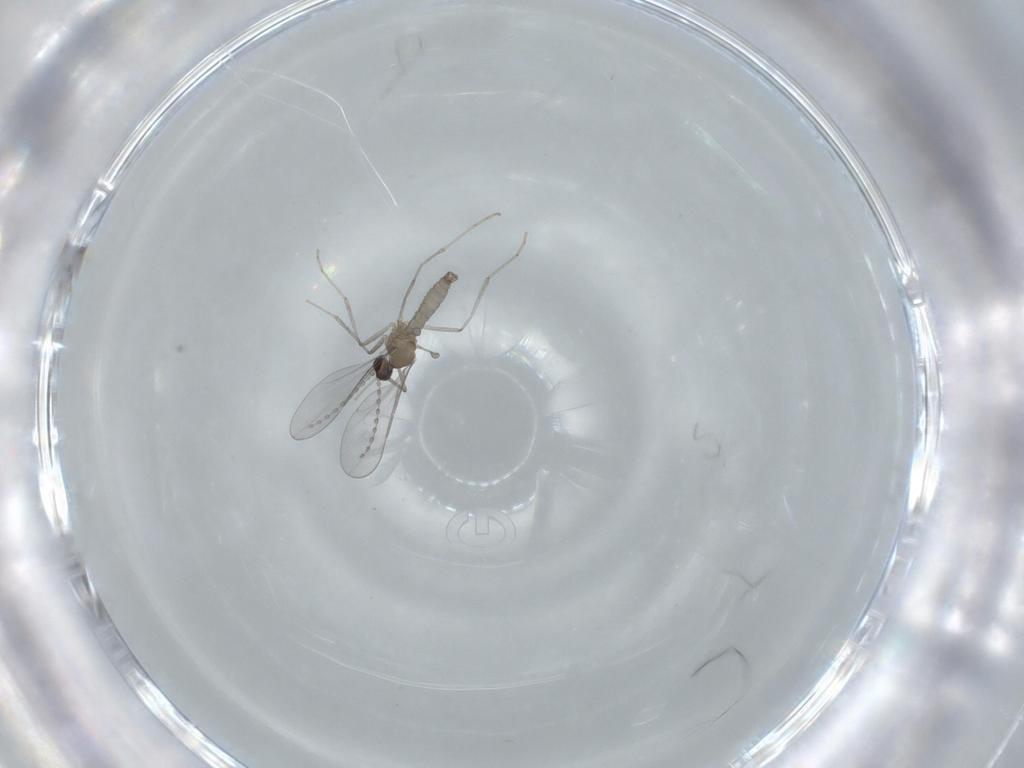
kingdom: Animalia
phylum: Arthropoda
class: Insecta
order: Diptera
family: Cecidomyiidae
